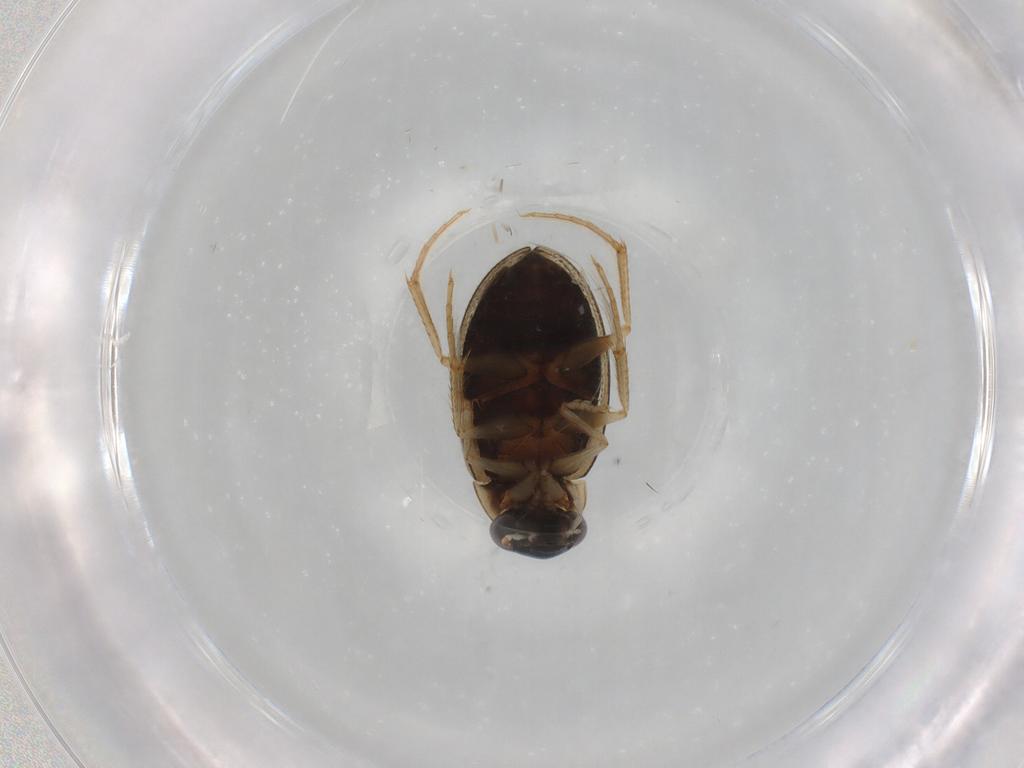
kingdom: Animalia
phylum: Arthropoda
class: Insecta
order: Coleoptera
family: Hydrophilidae
